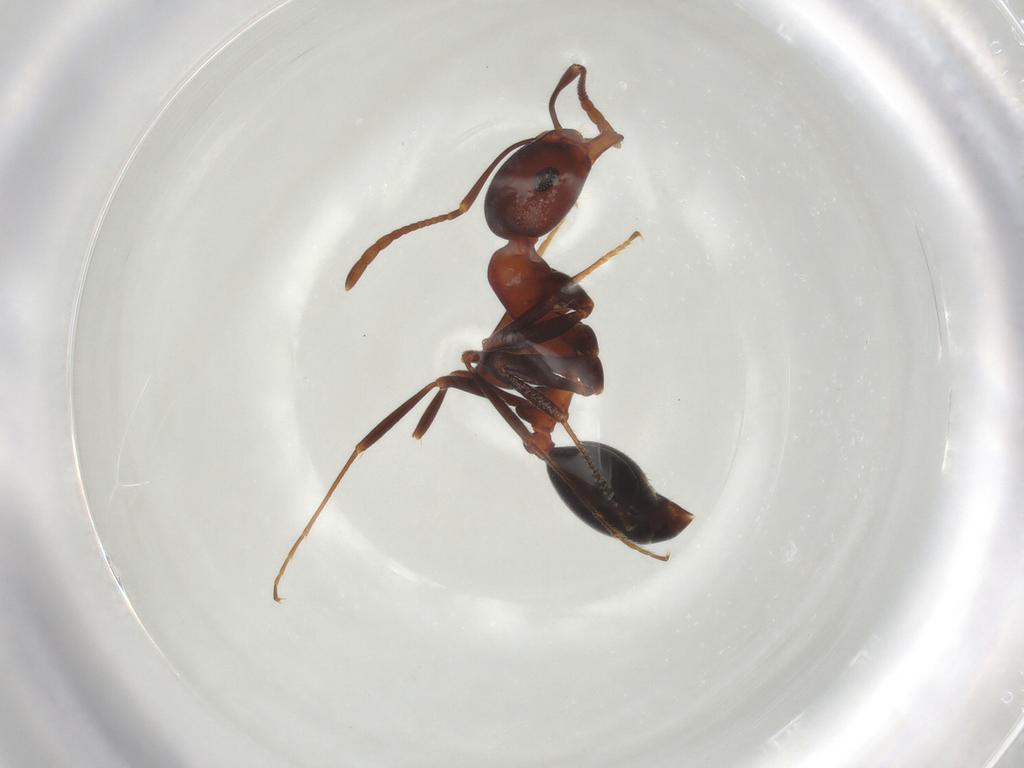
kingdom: Animalia
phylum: Arthropoda
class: Insecta
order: Hymenoptera
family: Formicidae
